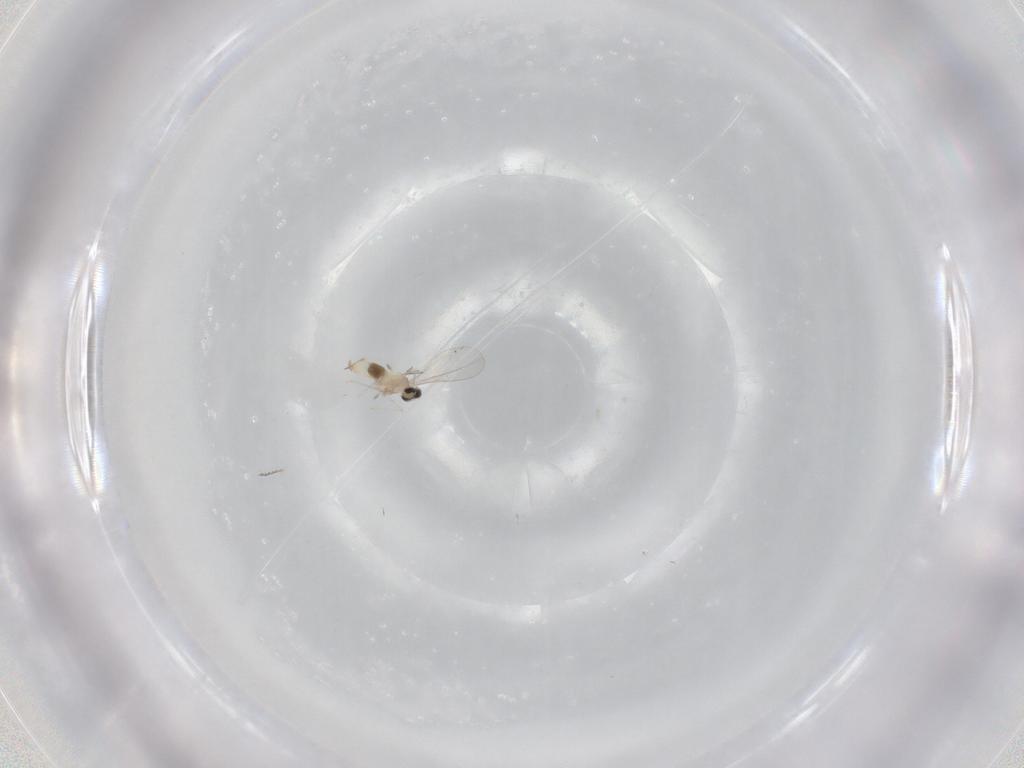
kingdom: Animalia
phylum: Arthropoda
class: Insecta
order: Diptera
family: Cecidomyiidae
